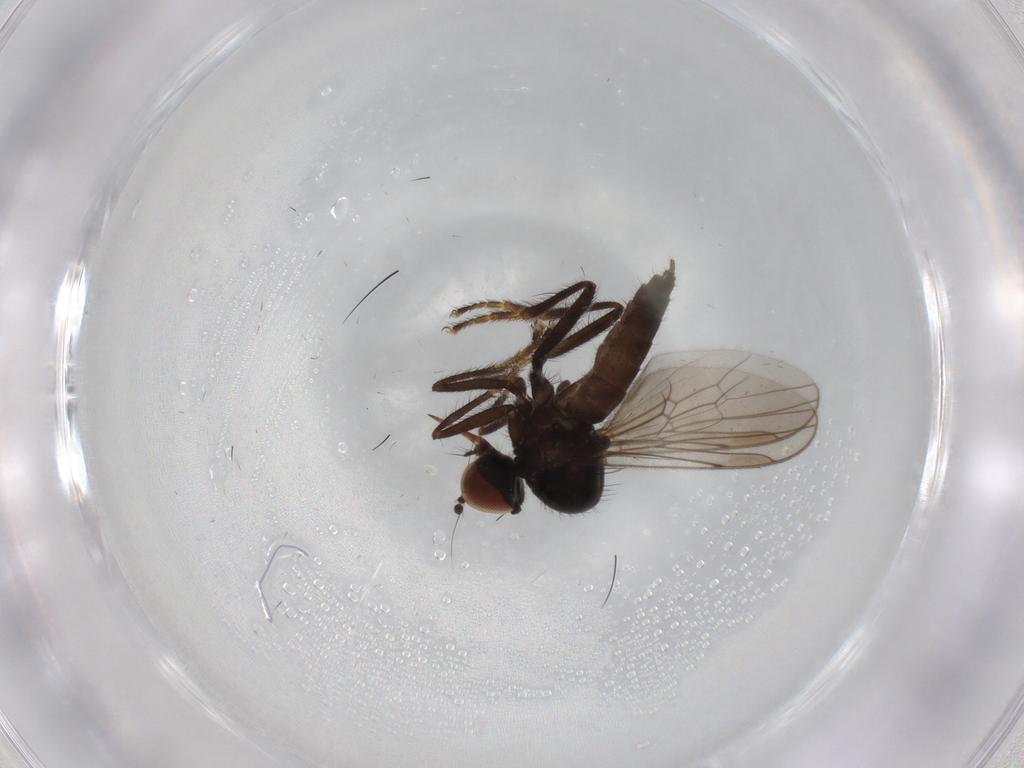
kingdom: Animalia
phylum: Arthropoda
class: Insecta
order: Diptera
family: Hybotidae
